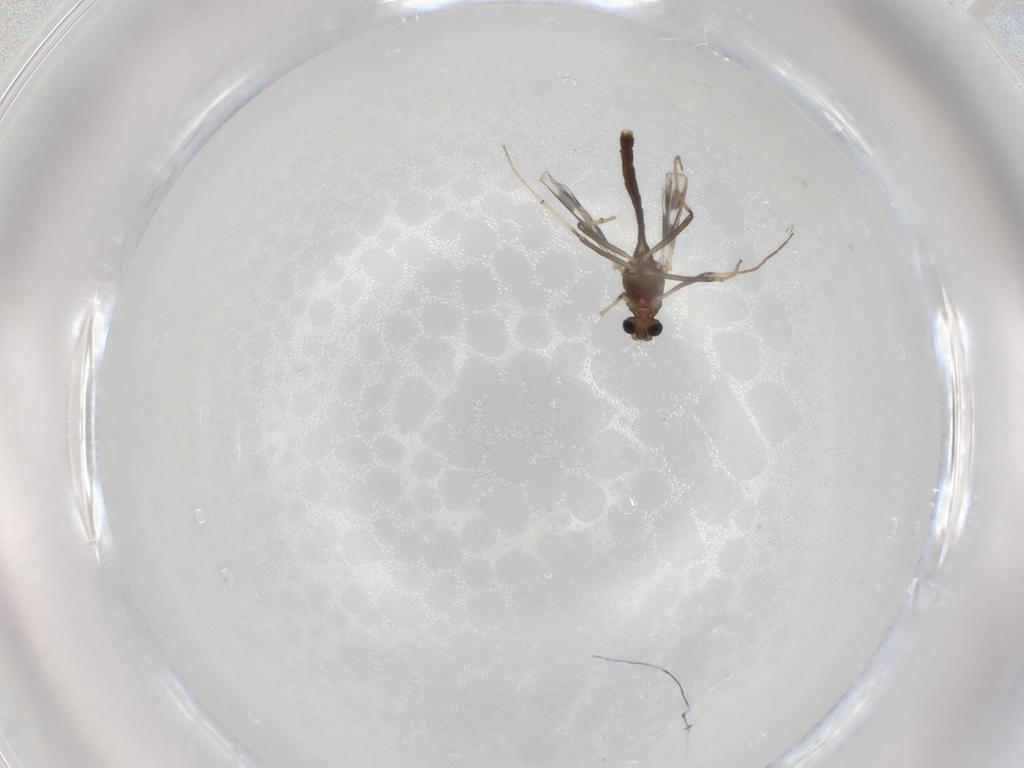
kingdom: Animalia
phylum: Arthropoda
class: Insecta
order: Diptera
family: Chironomidae
